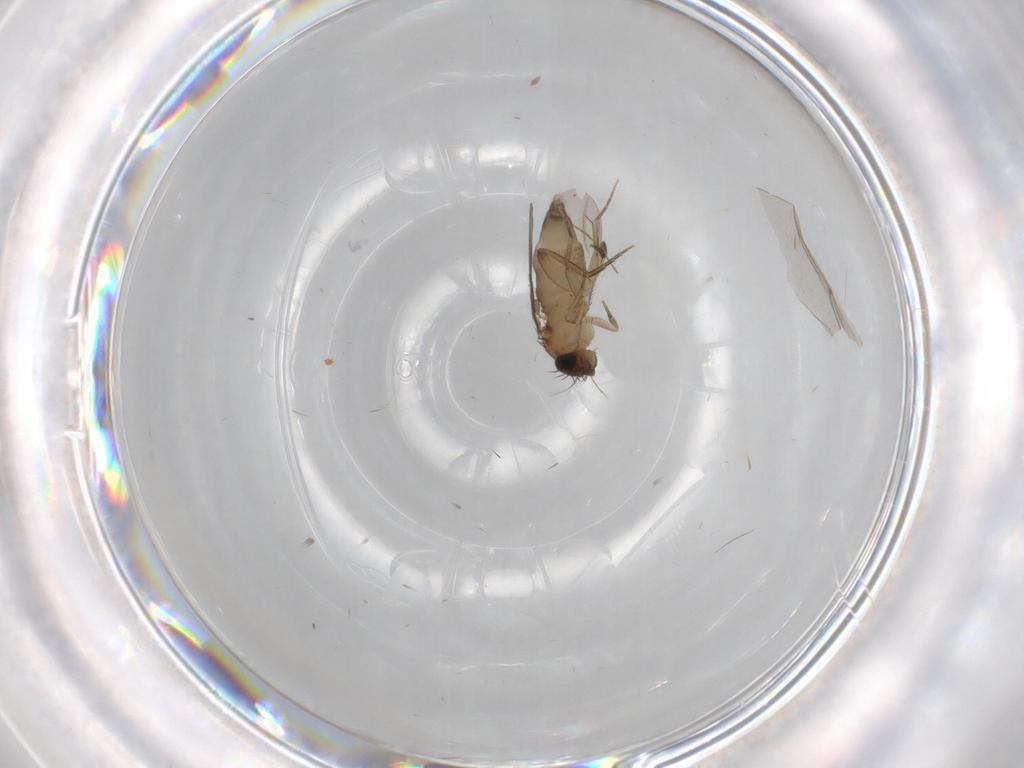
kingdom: Animalia
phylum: Arthropoda
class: Insecta
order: Diptera
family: Phoridae
